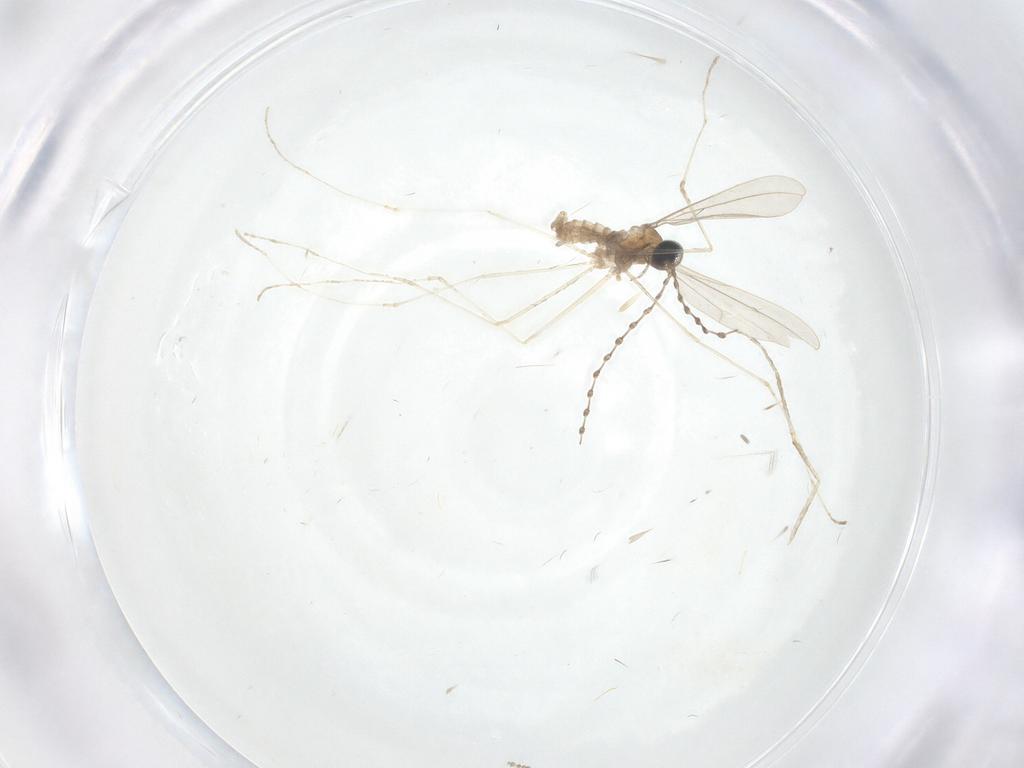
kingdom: Animalia
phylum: Arthropoda
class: Insecta
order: Diptera
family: Cecidomyiidae
